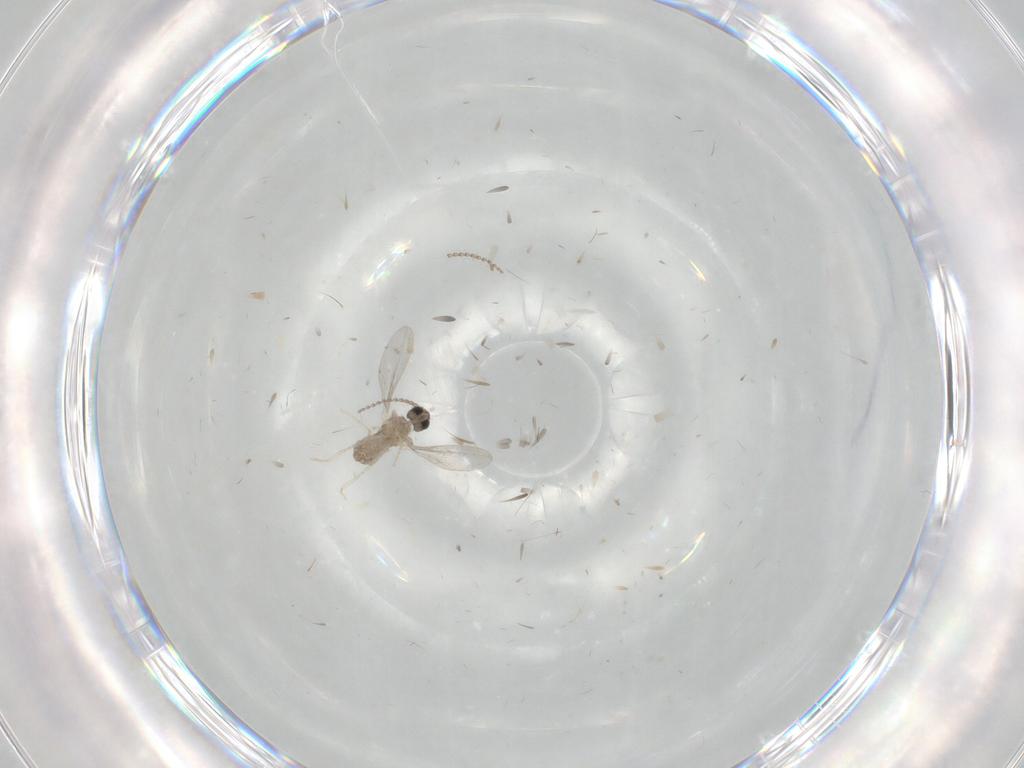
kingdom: Animalia
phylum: Arthropoda
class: Insecta
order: Diptera
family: Cecidomyiidae
